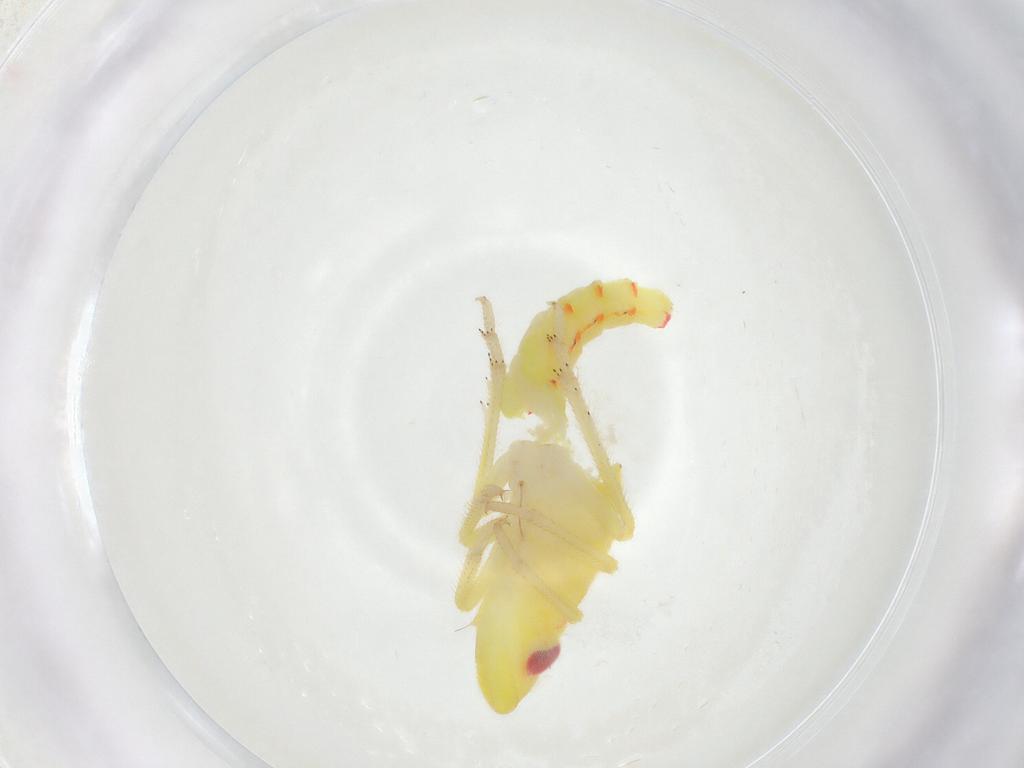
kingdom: Animalia
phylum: Arthropoda
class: Insecta
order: Hemiptera
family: Tropiduchidae
